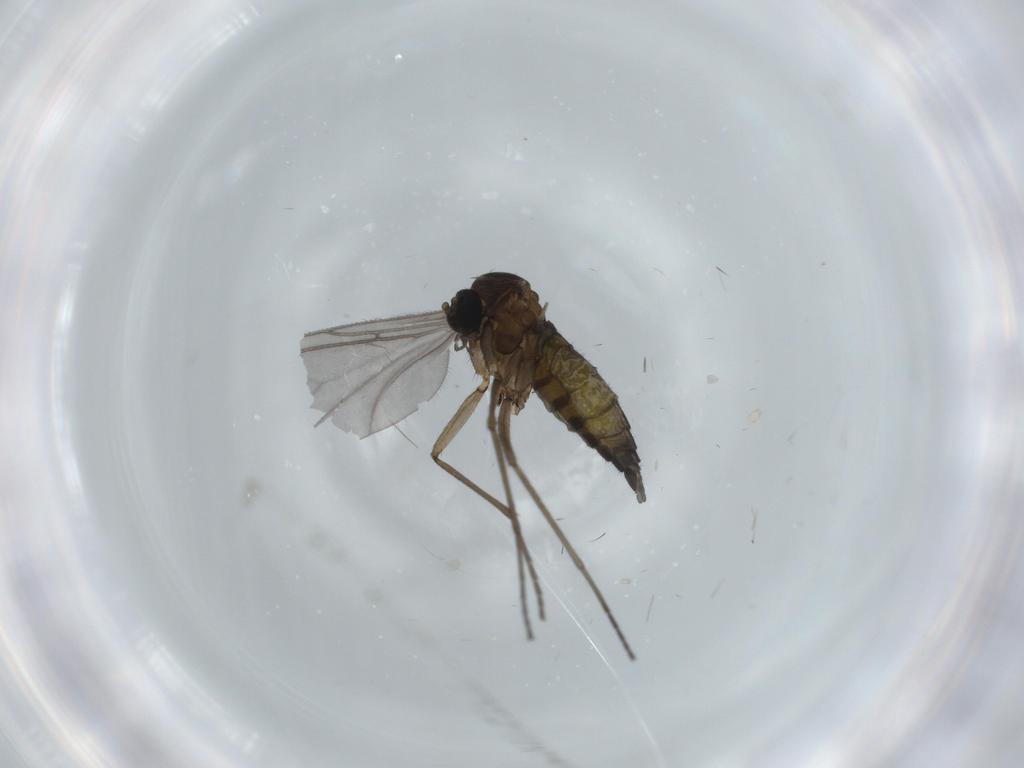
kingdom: Animalia
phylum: Arthropoda
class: Insecta
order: Diptera
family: Sciaridae
